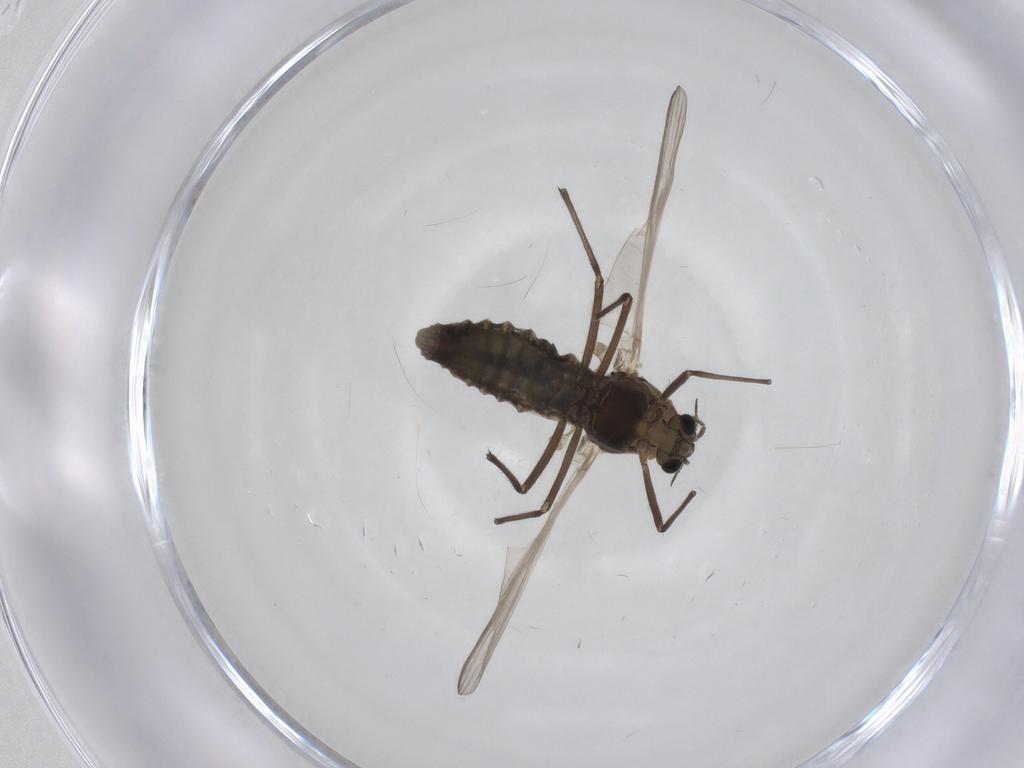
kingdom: Animalia
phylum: Arthropoda
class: Insecta
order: Diptera
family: Chironomidae
